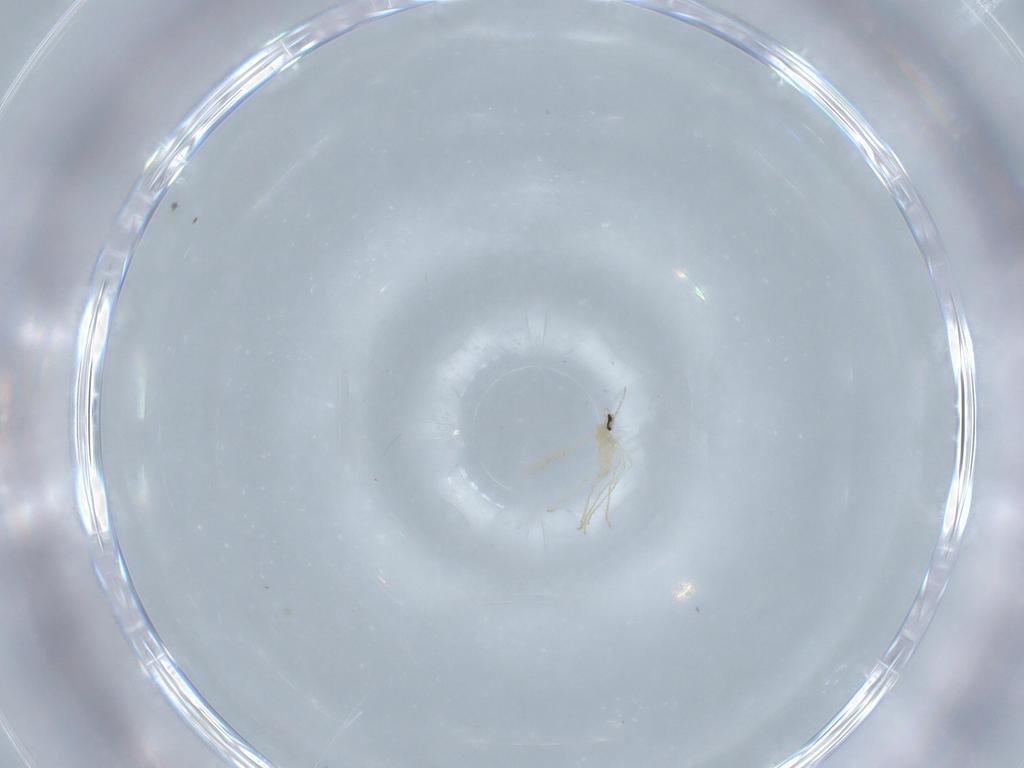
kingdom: Animalia
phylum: Arthropoda
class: Insecta
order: Diptera
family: Cecidomyiidae
